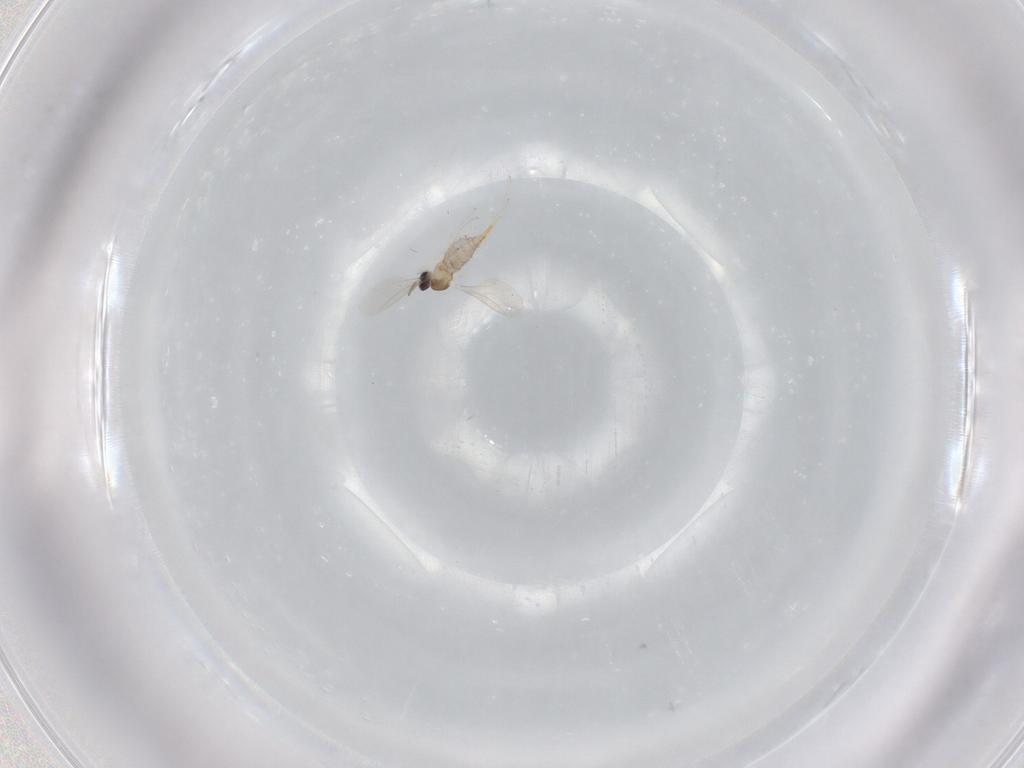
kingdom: Animalia
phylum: Arthropoda
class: Insecta
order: Diptera
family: Cecidomyiidae
